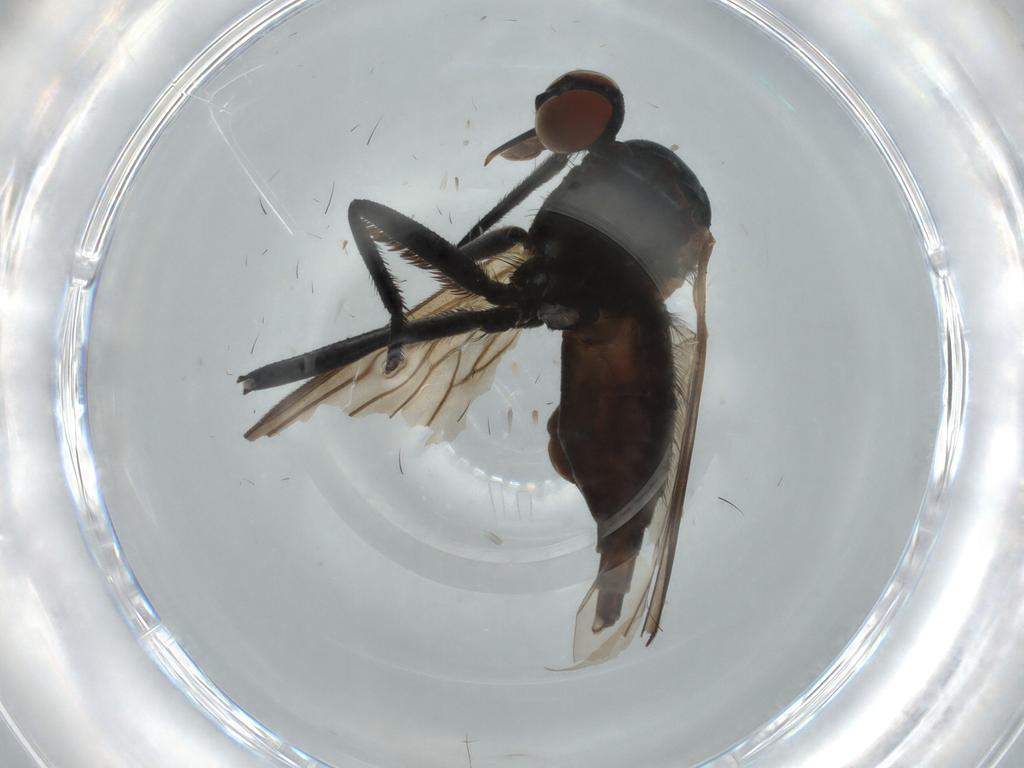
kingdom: Animalia
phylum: Arthropoda
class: Insecta
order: Diptera
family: Empididae
